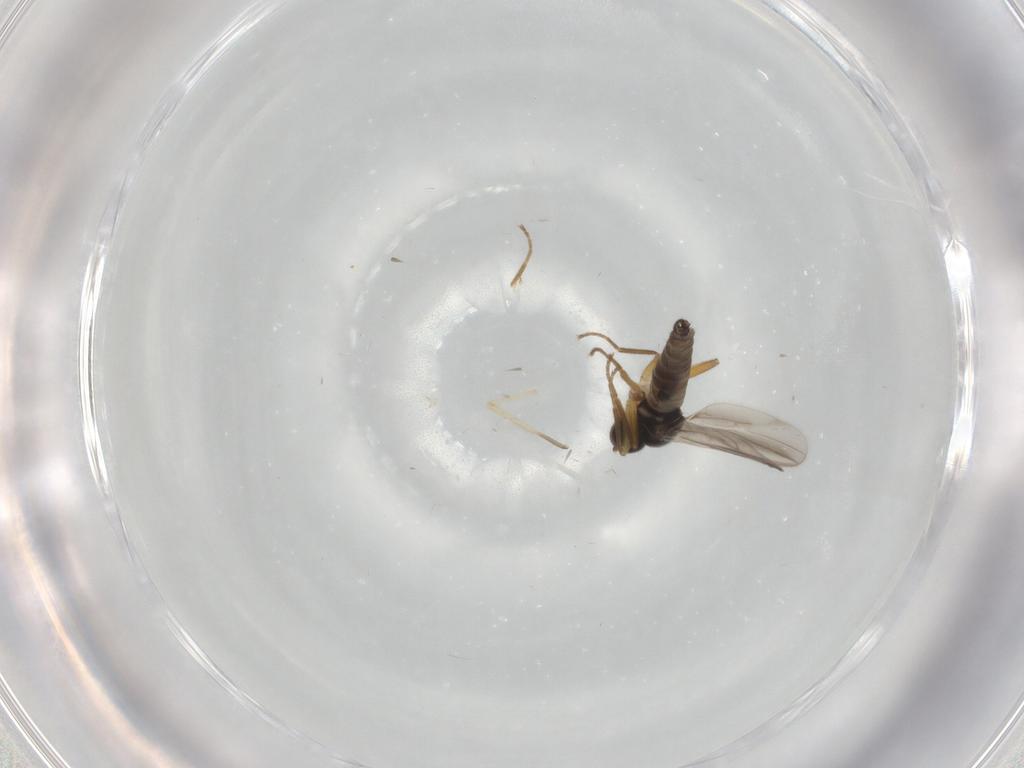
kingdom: Animalia
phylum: Arthropoda
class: Insecta
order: Diptera
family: Hybotidae
